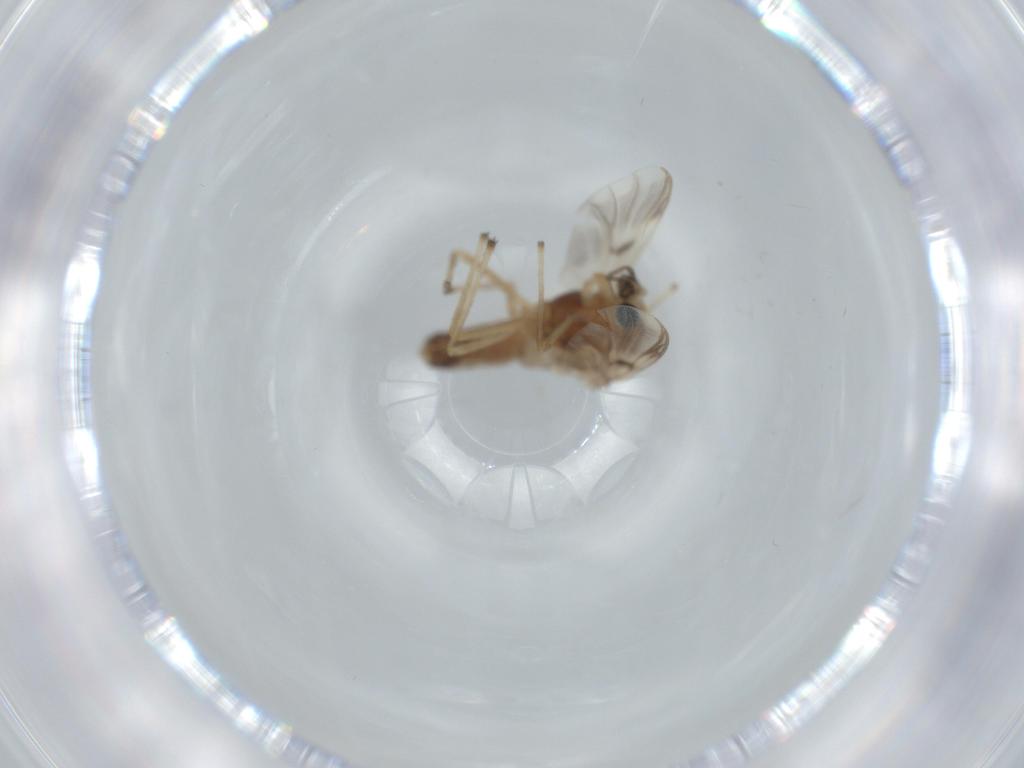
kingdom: Animalia
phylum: Arthropoda
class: Insecta
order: Diptera
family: Chironomidae
